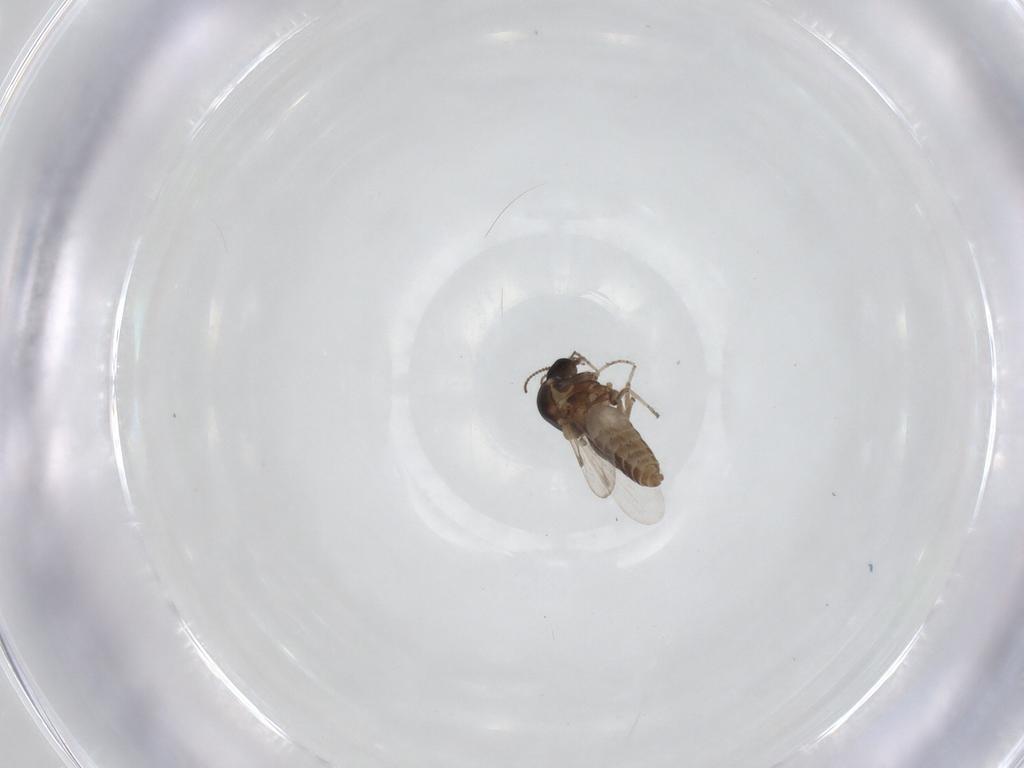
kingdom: Animalia
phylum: Arthropoda
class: Insecta
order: Diptera
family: Ceratopogonidae
